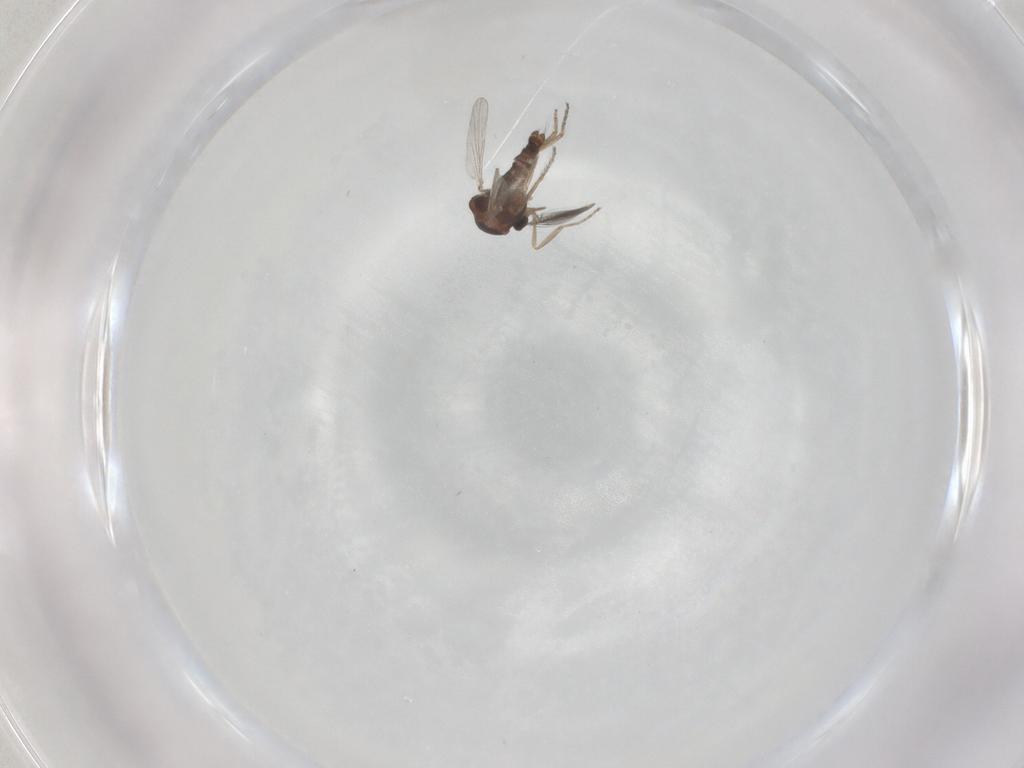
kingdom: Animalia
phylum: Arthropoda
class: Insecta
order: Diptera
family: Ceratopogonidae
